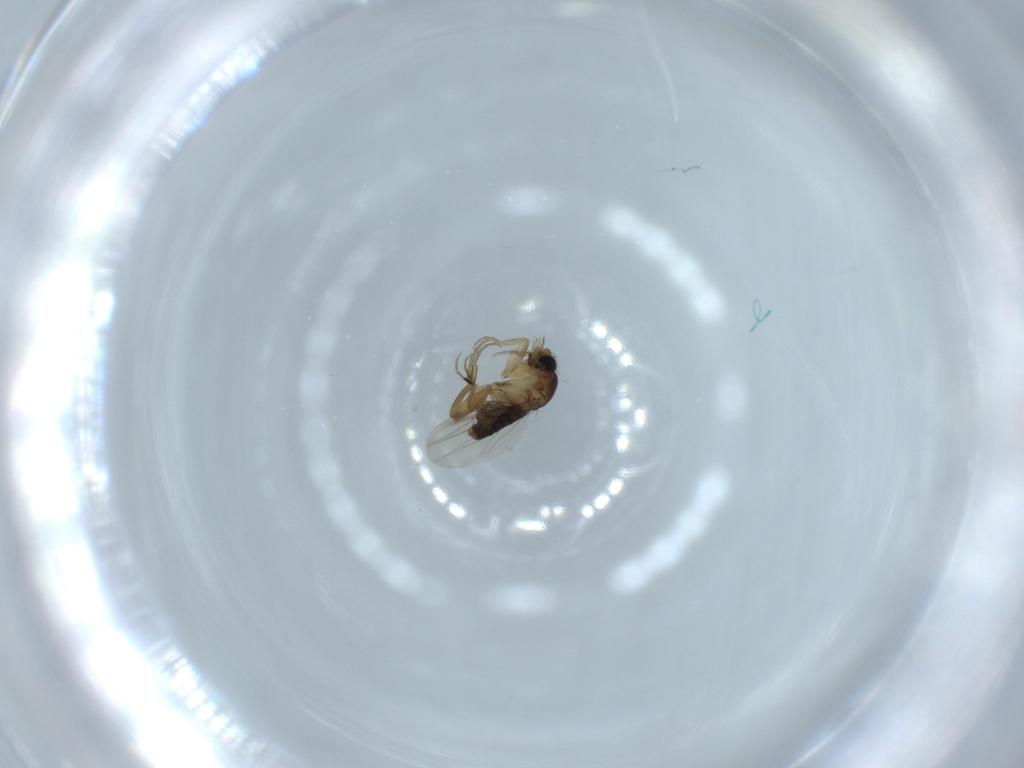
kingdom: Animalia
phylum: Arthropoda
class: Insecta
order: Diptera
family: Phoridae
